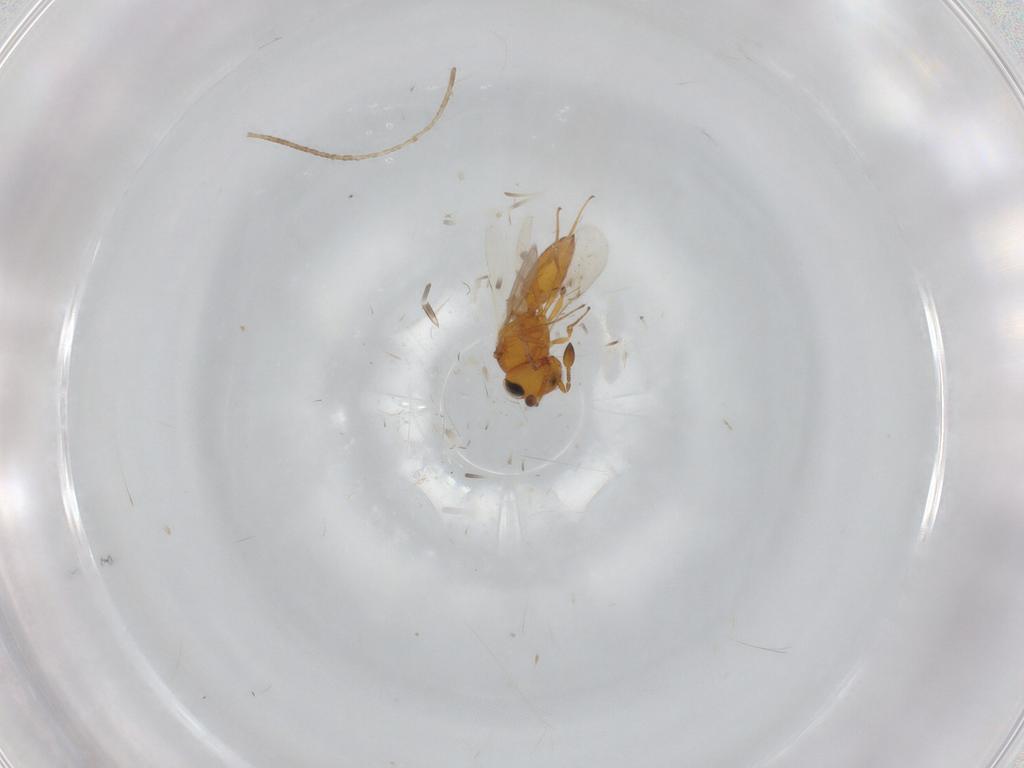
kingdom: Animalia
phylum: Arthropoda
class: Insecta
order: Hymenoptera
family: Scelionidae
